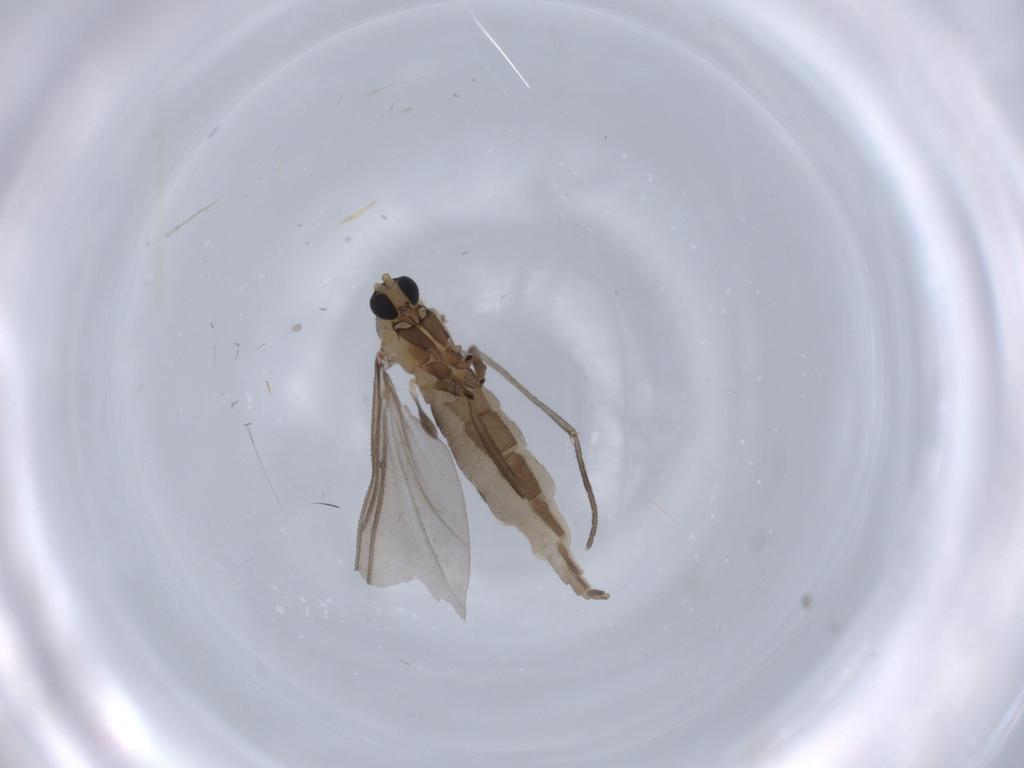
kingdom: Animalia
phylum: Arthropoda
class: Insecta
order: Diptera
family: Sciaridae
